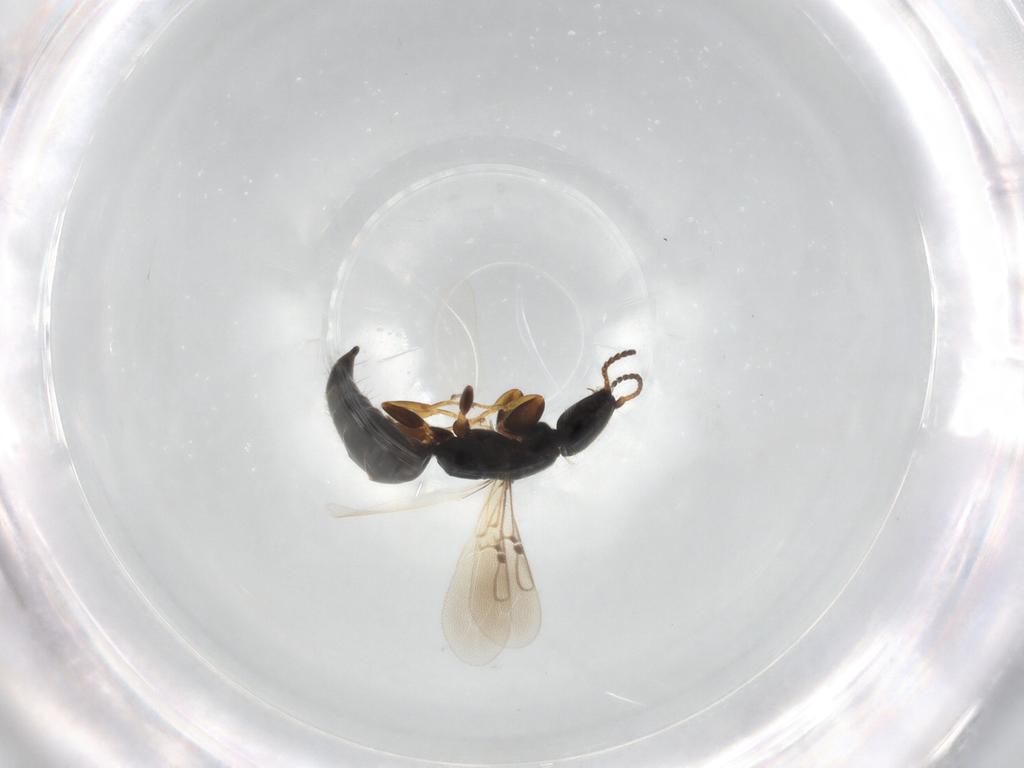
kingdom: Animalia
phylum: Arthropoda
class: Insecta
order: Hymenoptera
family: Bethylidae
